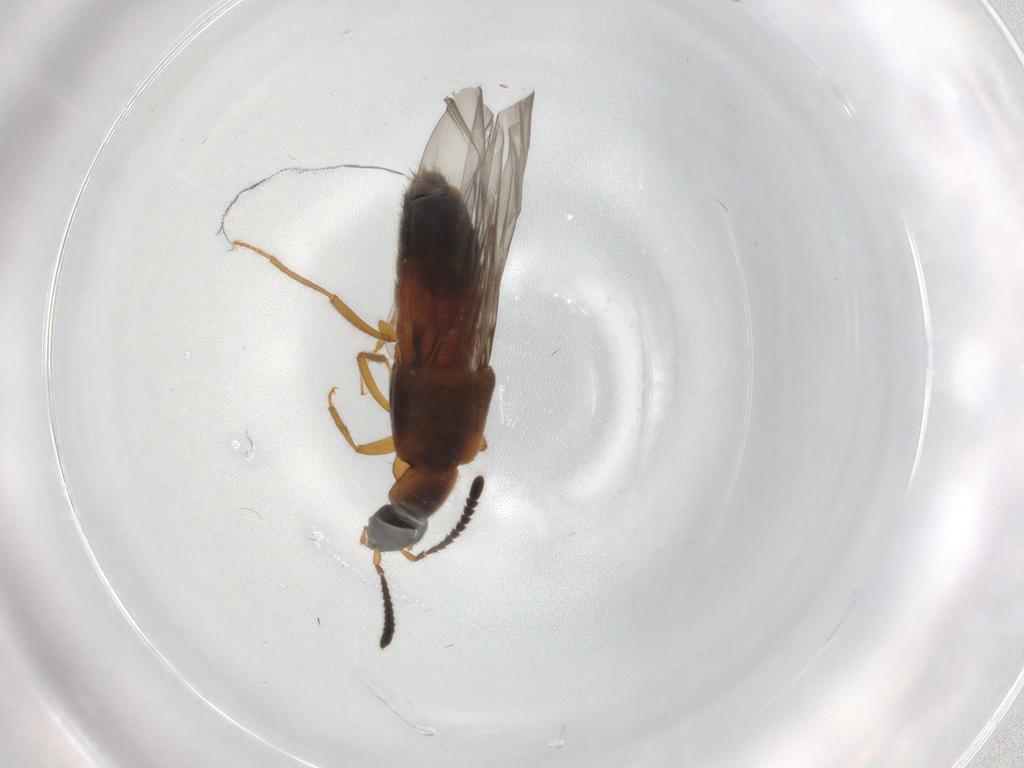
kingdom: Animalia
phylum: Arthropoda
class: Insecta
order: Coleoptera
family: Staphylinidae
